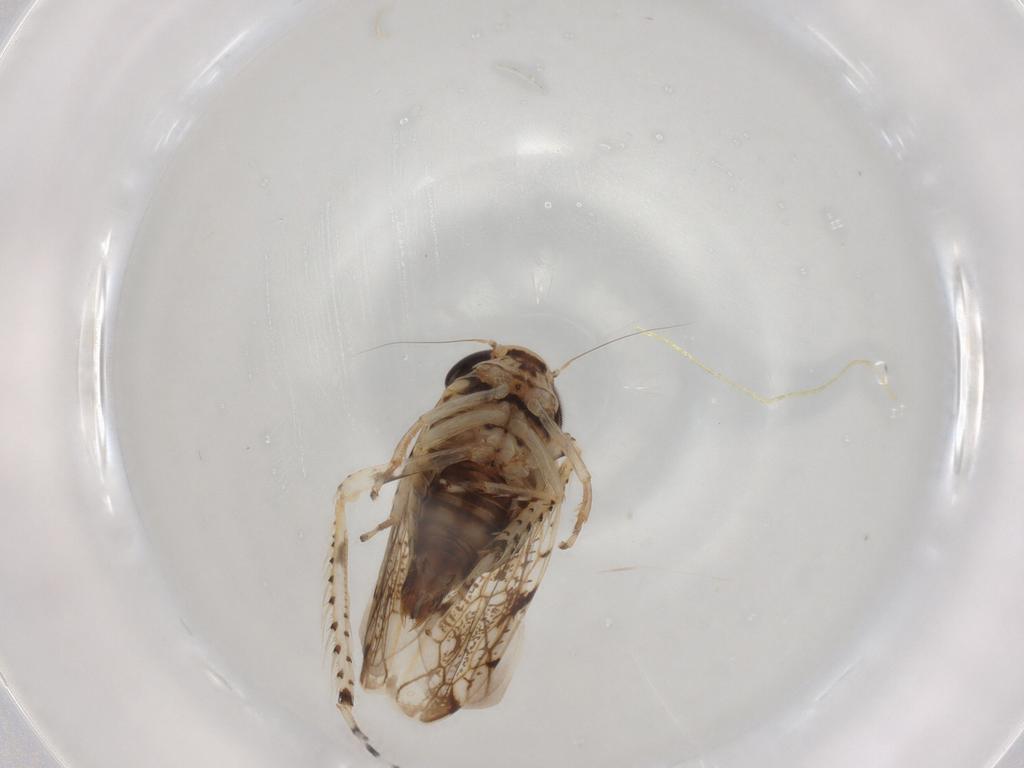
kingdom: Animalia
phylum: Arthropoda
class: Insecta
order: Hemiptera
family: Cicadellidae
